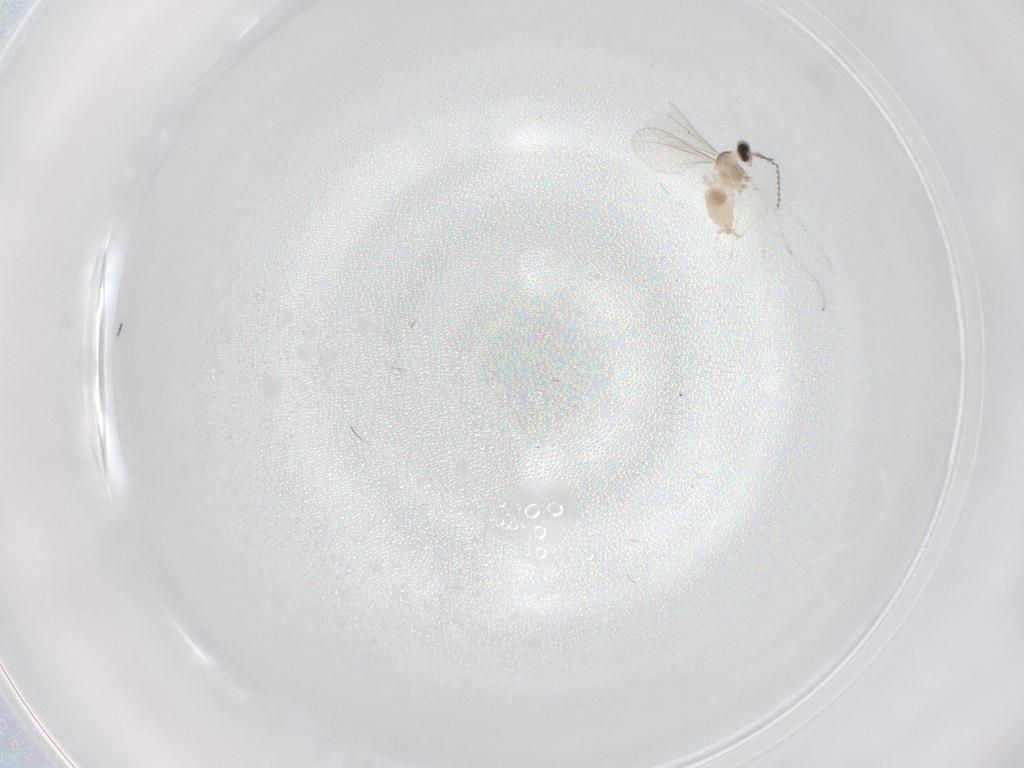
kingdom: Animalia
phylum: Arthropoda
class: Insecta
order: Diptera
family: Cecidomyiidae
